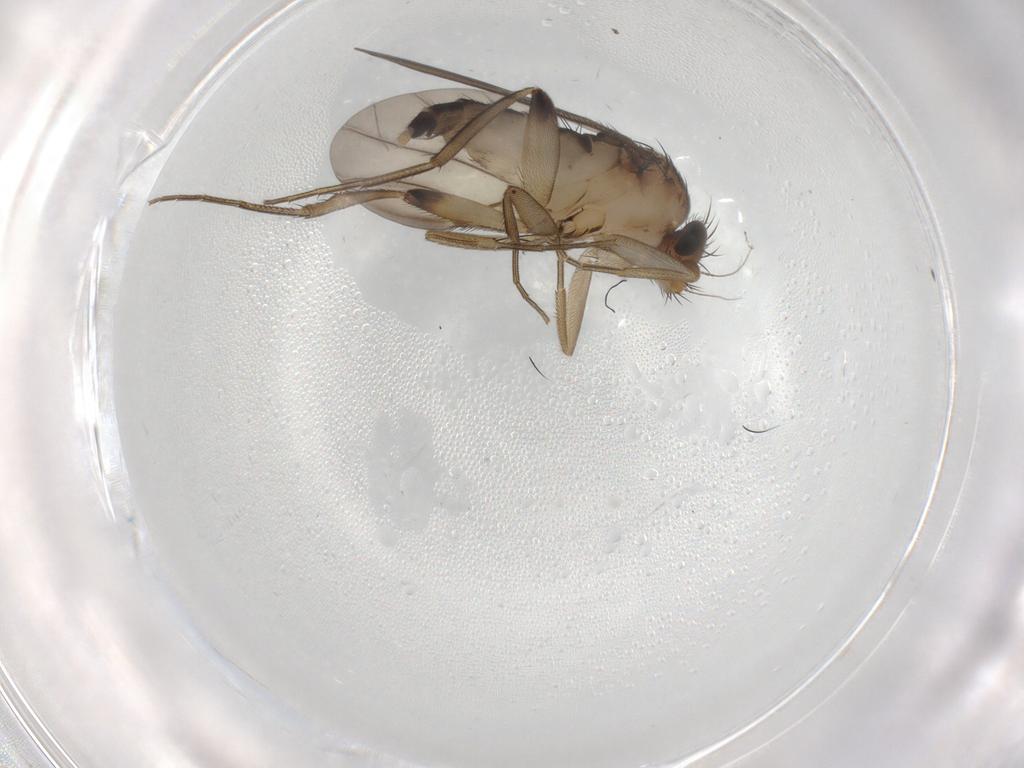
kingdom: Animalia
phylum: Arthropoda
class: Insecta
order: Diptera
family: Phoridae
